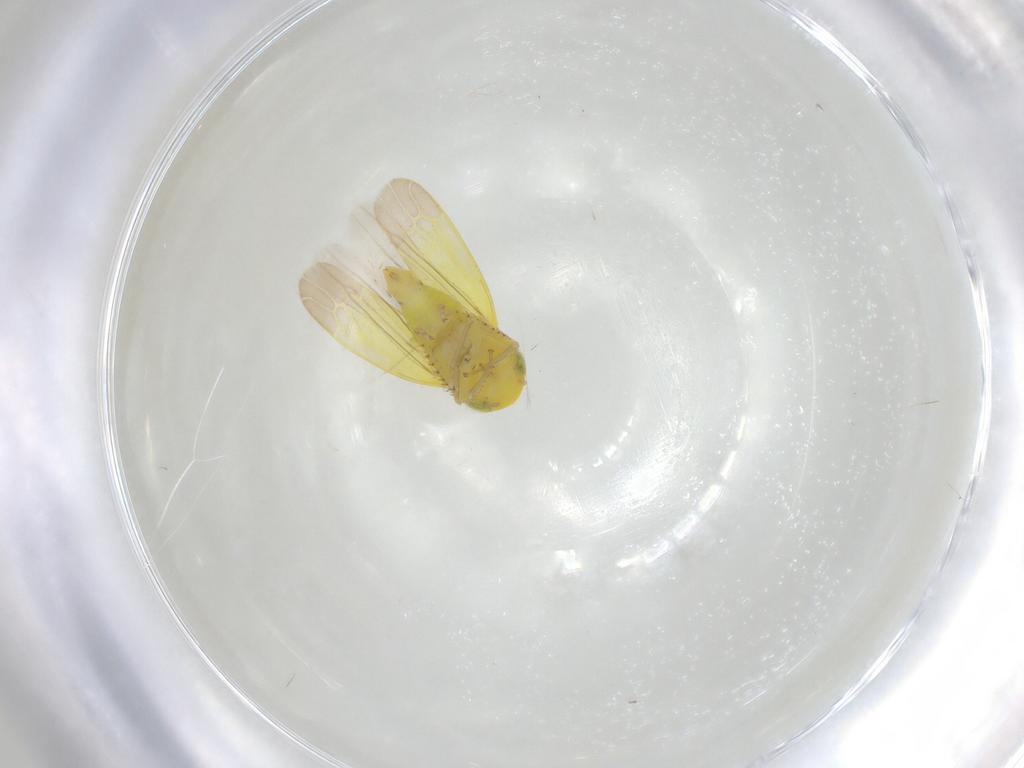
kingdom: Animalia
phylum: Arthropoda
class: Insecta
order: Hemiptera
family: Cicadellidae
